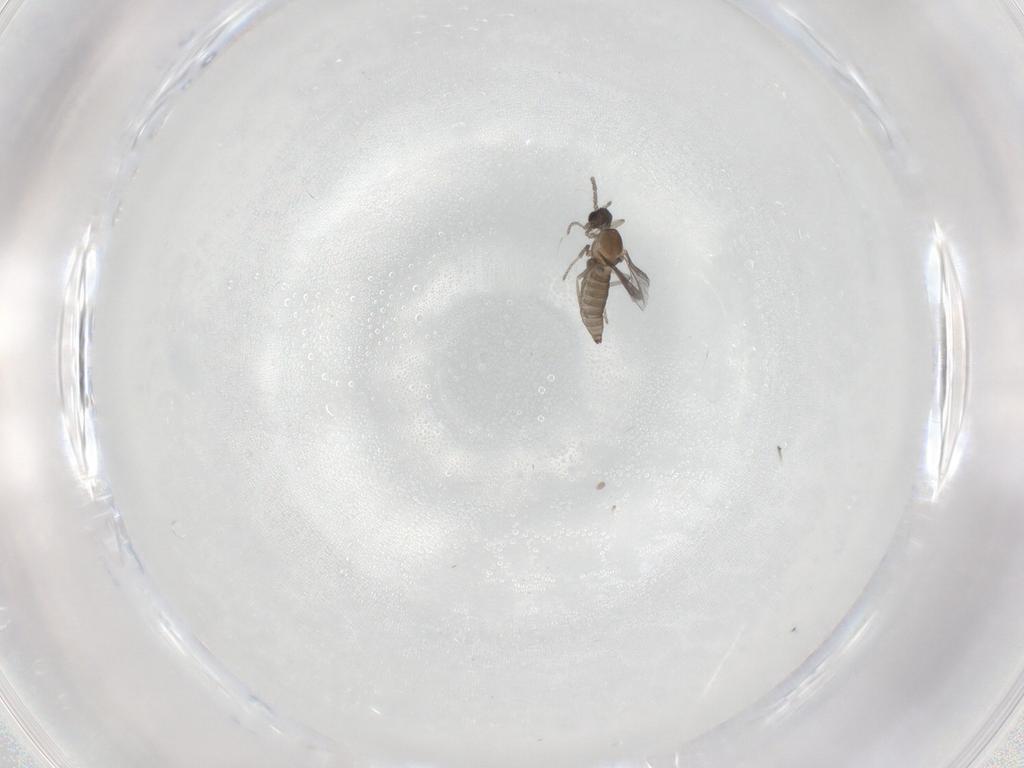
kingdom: Animalia
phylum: Arthropoda
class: Insecta
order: Diptera
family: Cecidomyiidae
